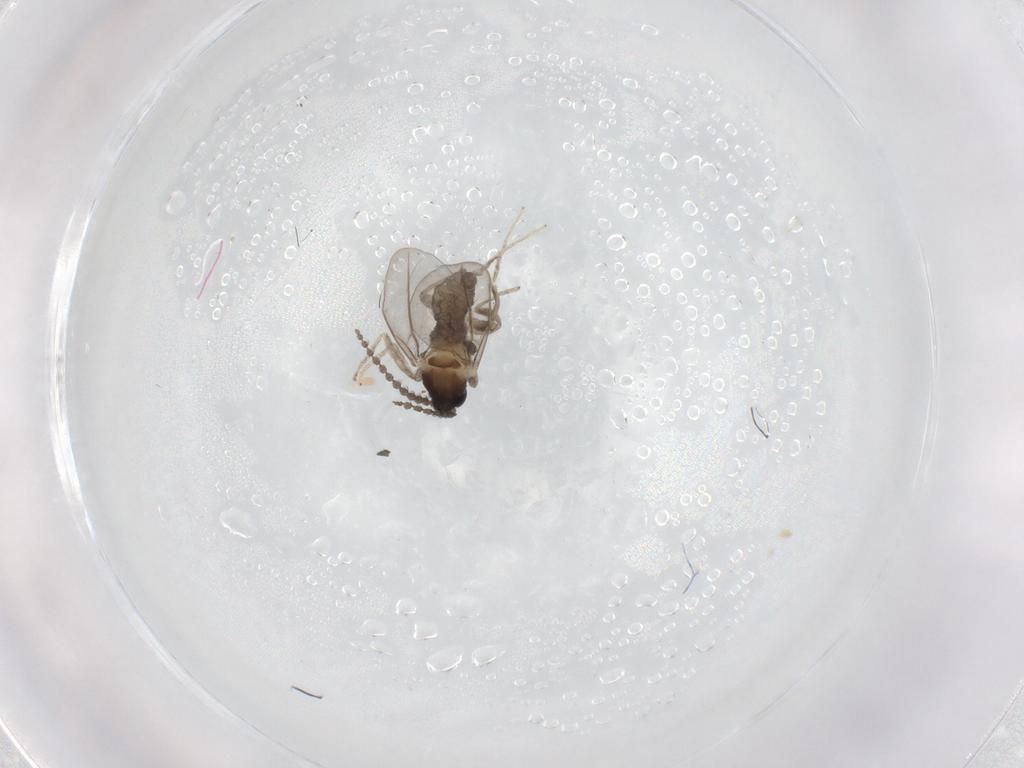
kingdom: Animalia
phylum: Arthropoda
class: Insecta
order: Diptera
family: Cecidomyiidae
